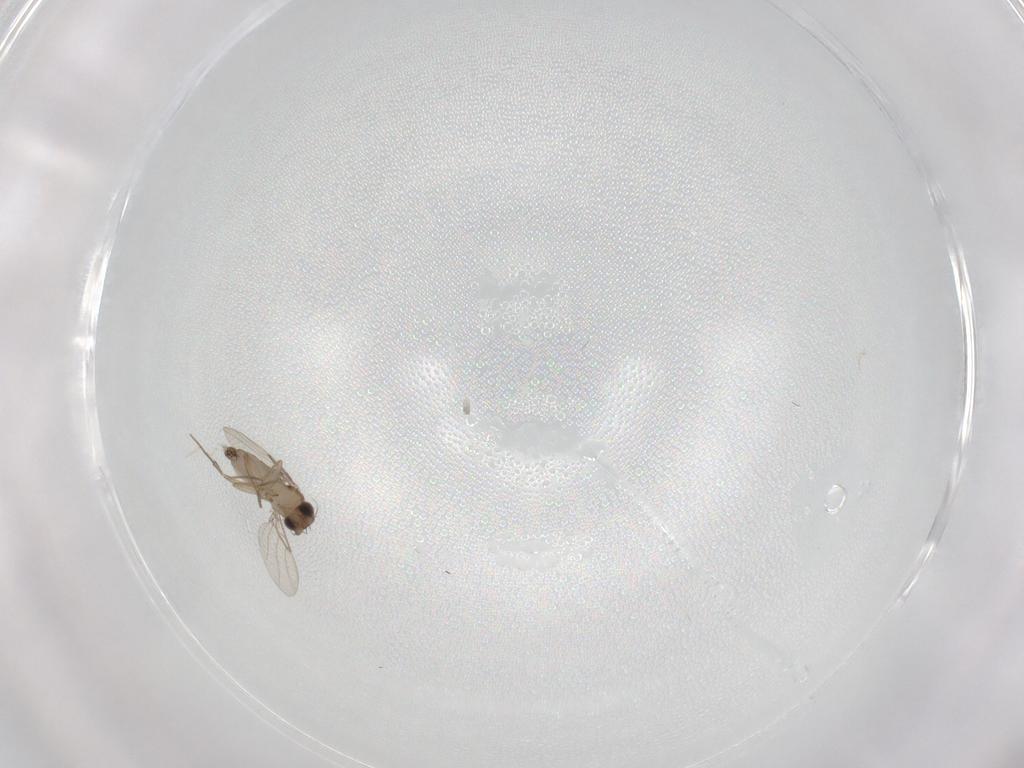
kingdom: Animalia
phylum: Arthropoda
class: Insecta
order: Diptera
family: Phoridae
